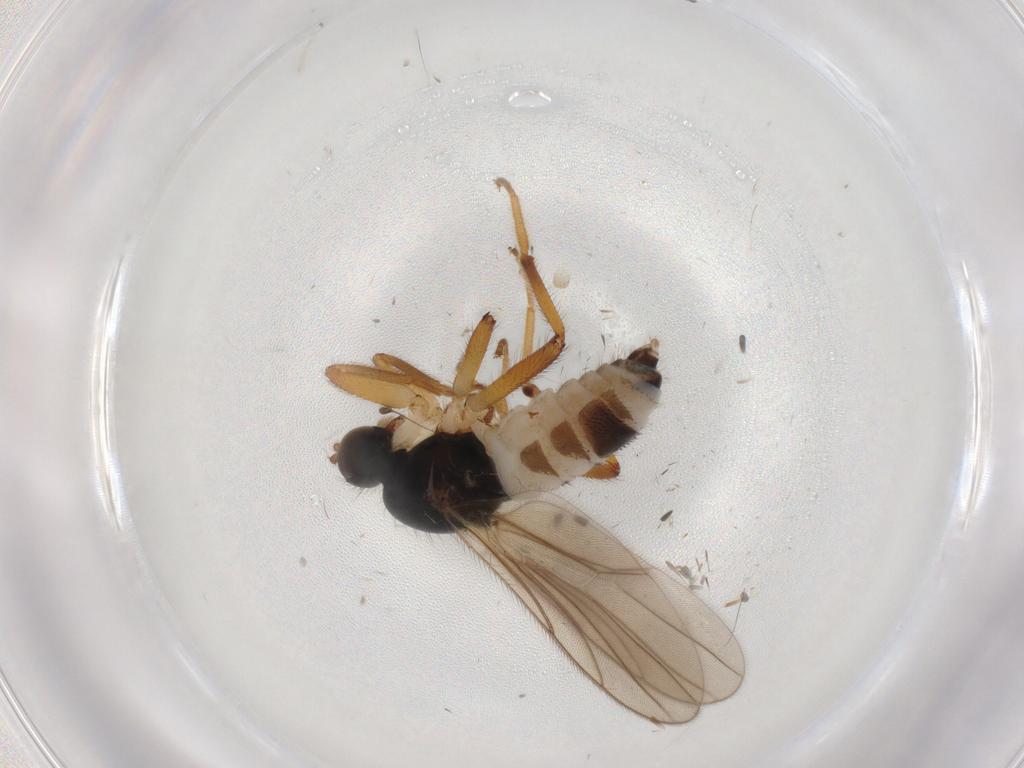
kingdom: Animalia
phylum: Arthropoda
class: Insecta
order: Diptera
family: Hybotidae
